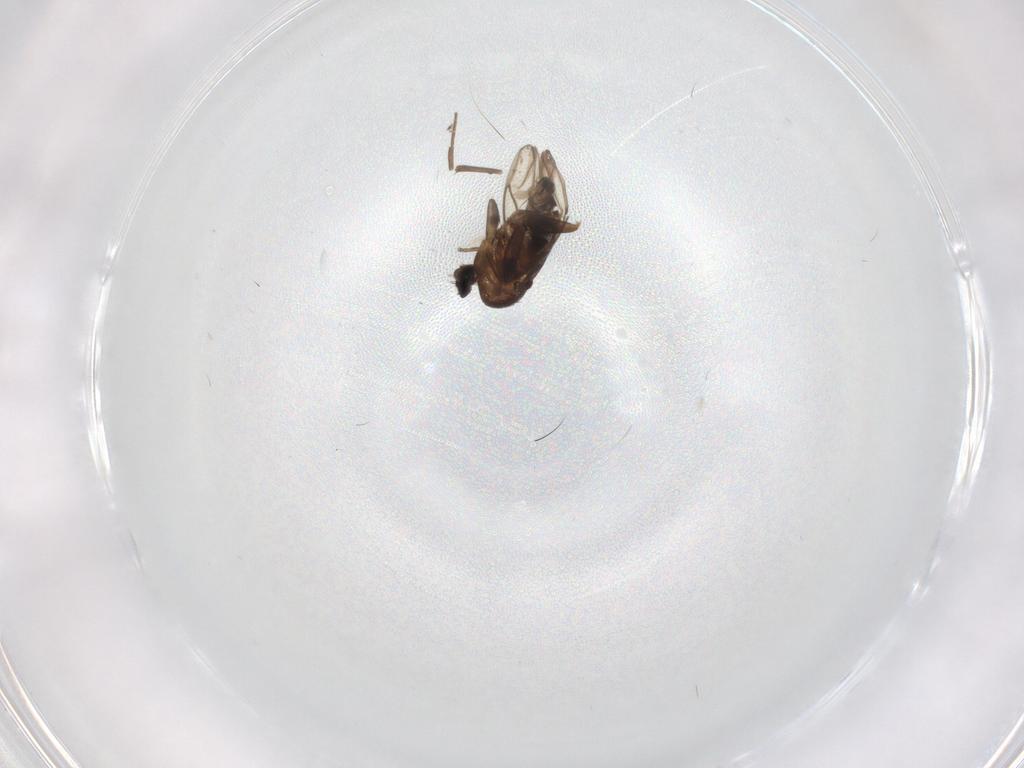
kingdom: Animalia
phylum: Arthropoda
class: Insecta
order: Diptera
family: Cecidomyiidae
